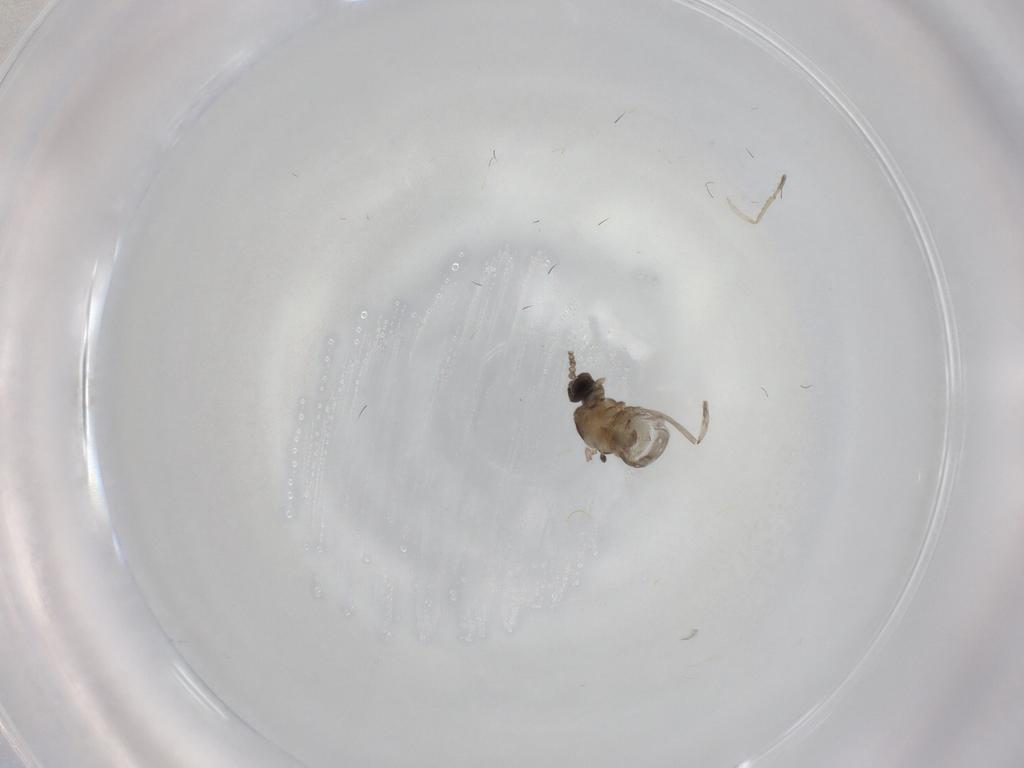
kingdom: Animalia
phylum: Arthropoda
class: Insecta
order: Diptera
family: Cecidomyiidae
